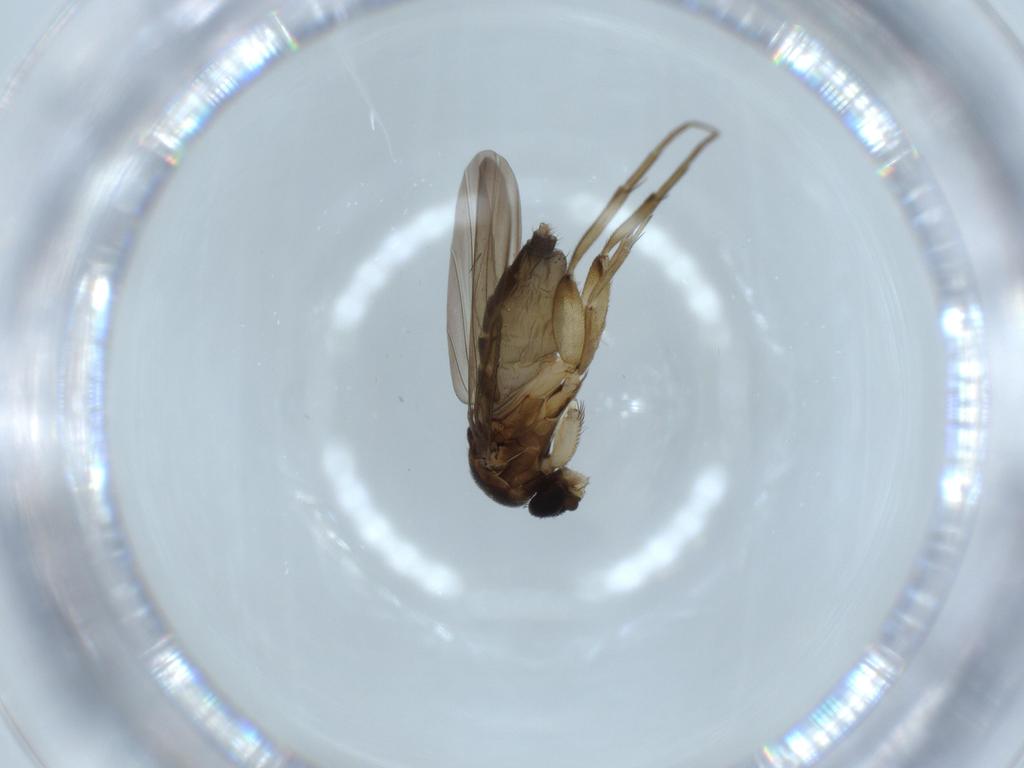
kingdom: Animalia
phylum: Arthropoda
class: Insecta
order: Diptera
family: Phoridae
